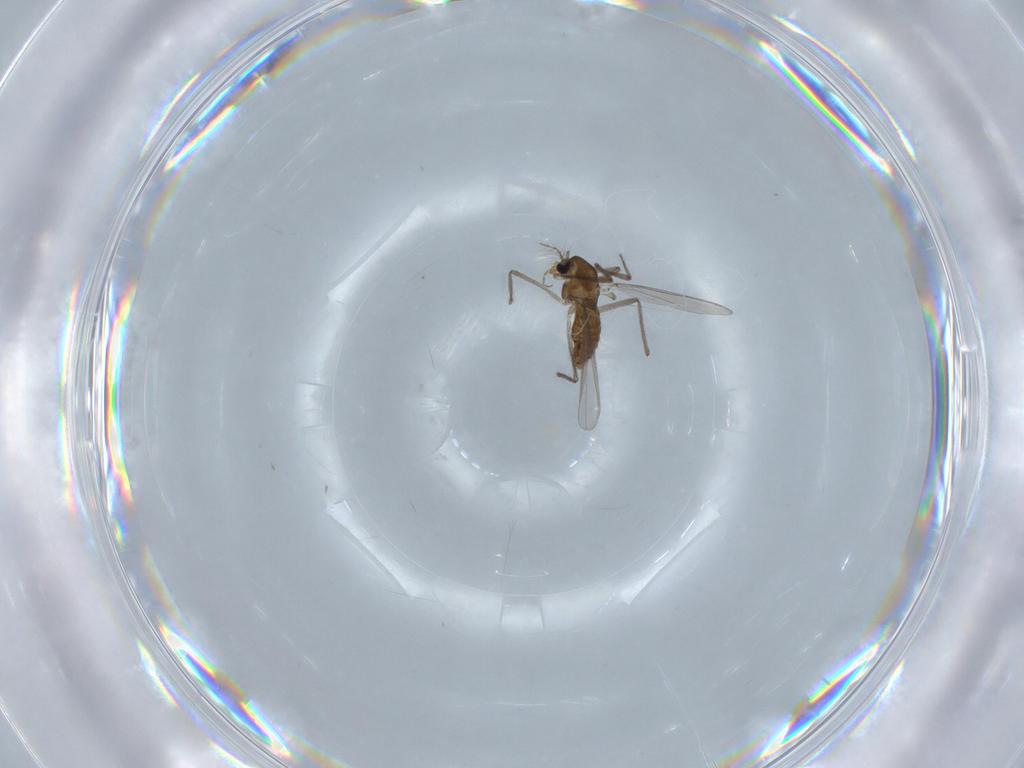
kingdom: Animalia
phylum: Arthropoda
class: Insecta
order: Diptera
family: Chironomidae
